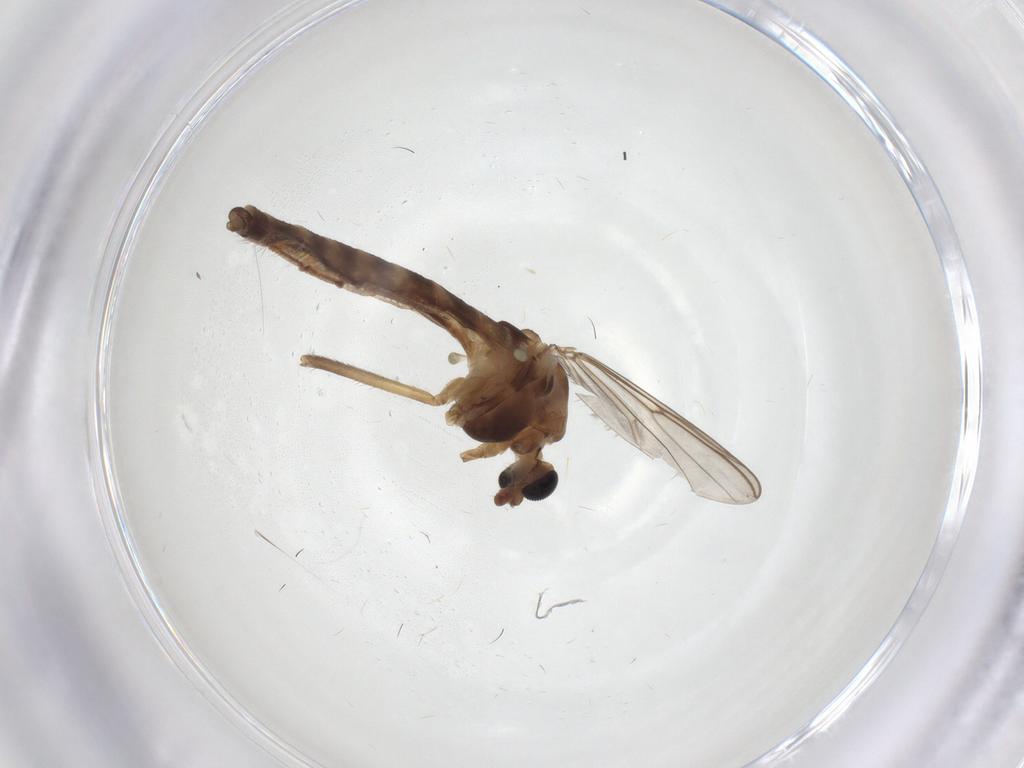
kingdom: Animalia
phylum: Arthropoda
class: Insecta
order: Diptera
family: Chironomidae
